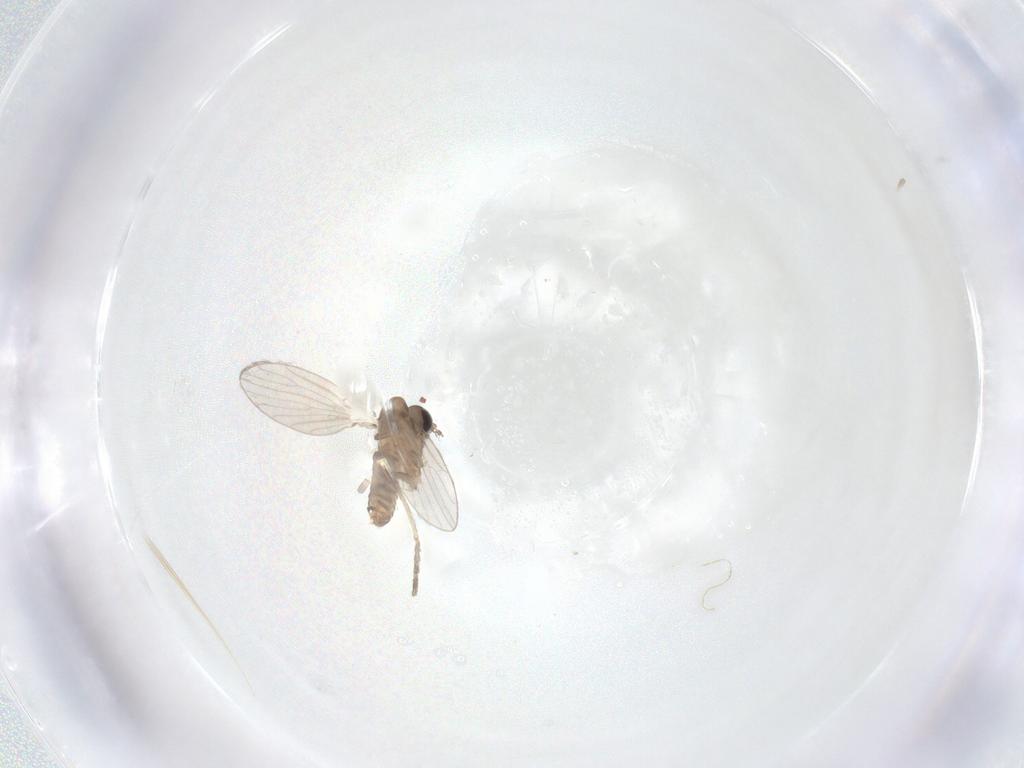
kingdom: Animalia
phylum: Arthropoda
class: Insecta
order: Diptera
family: Psychodidae
